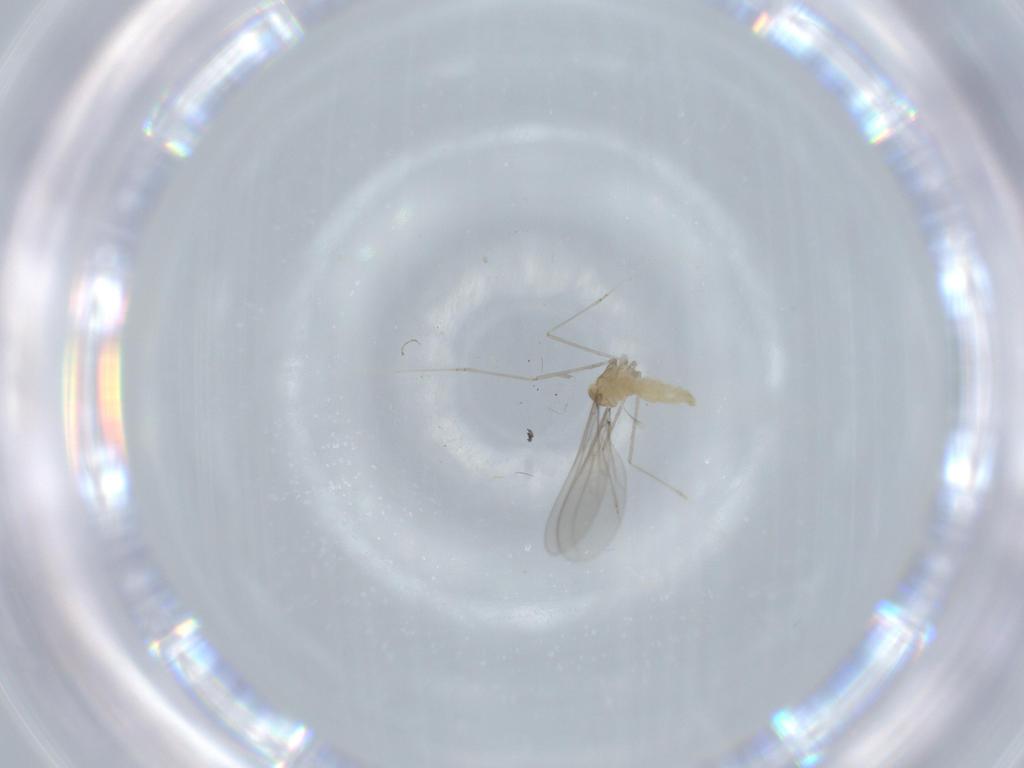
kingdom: Animalia
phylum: Arthropoda
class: Insecta
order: Diptera
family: Cecidomyiidae
